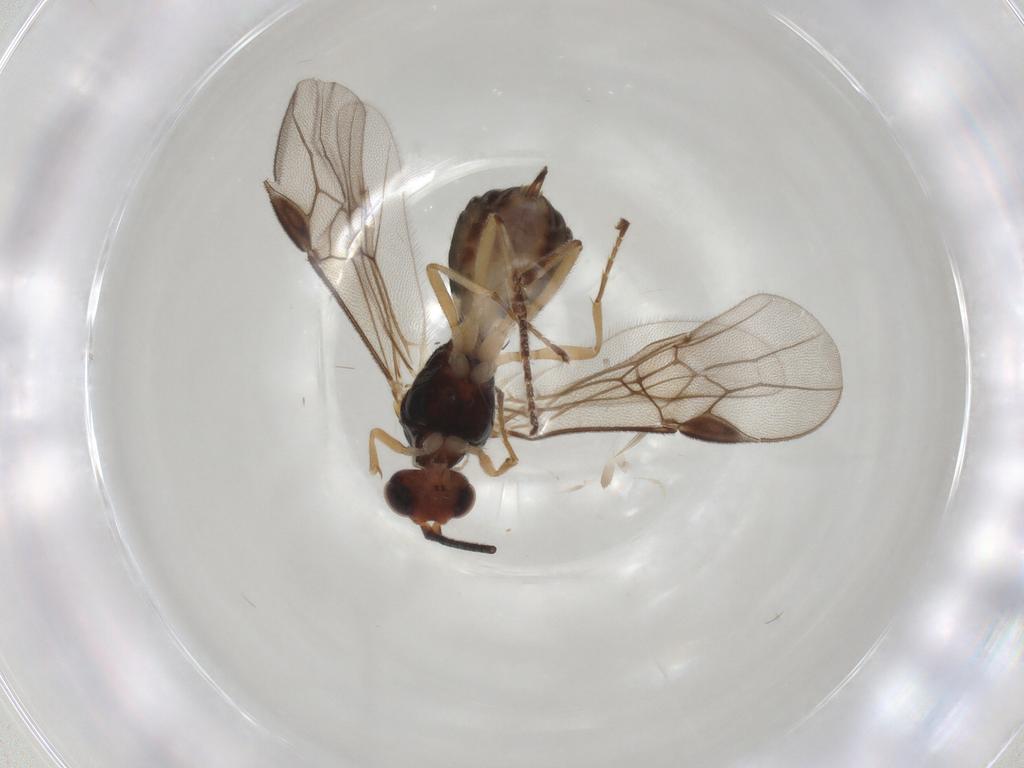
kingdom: Animalia
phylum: Arthropoda
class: Insecta
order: Hymenoptera
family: Braconidae
